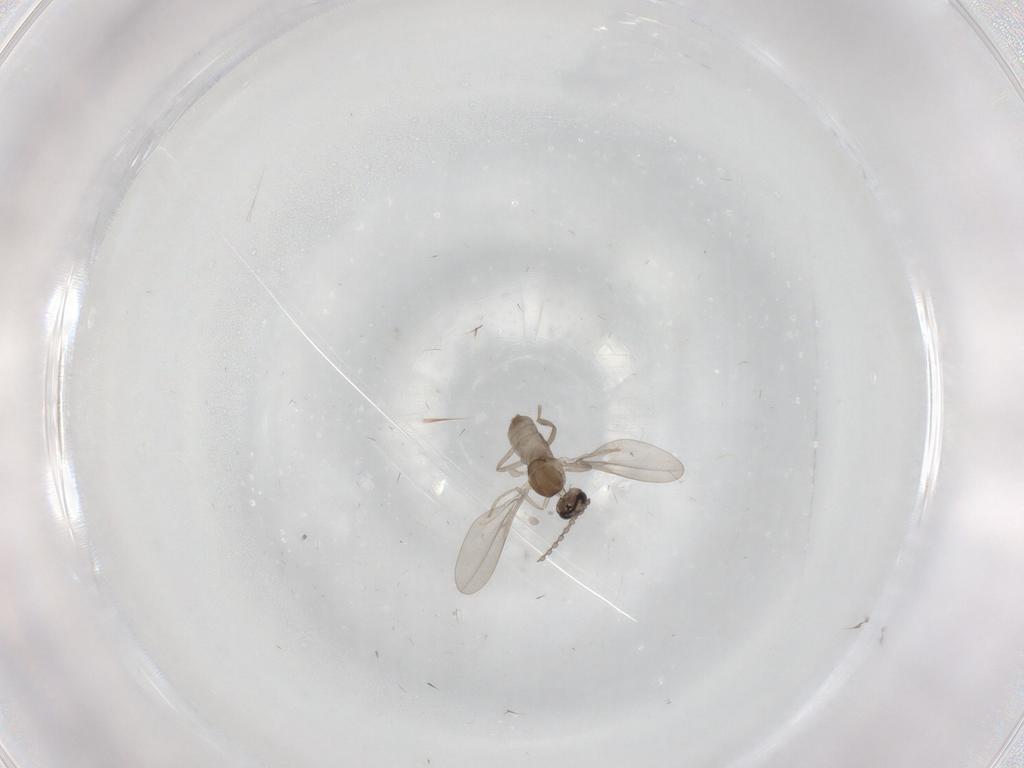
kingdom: Animalia
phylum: Arthropoda
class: Insecta
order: Diptera
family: Cecidomyiidae
